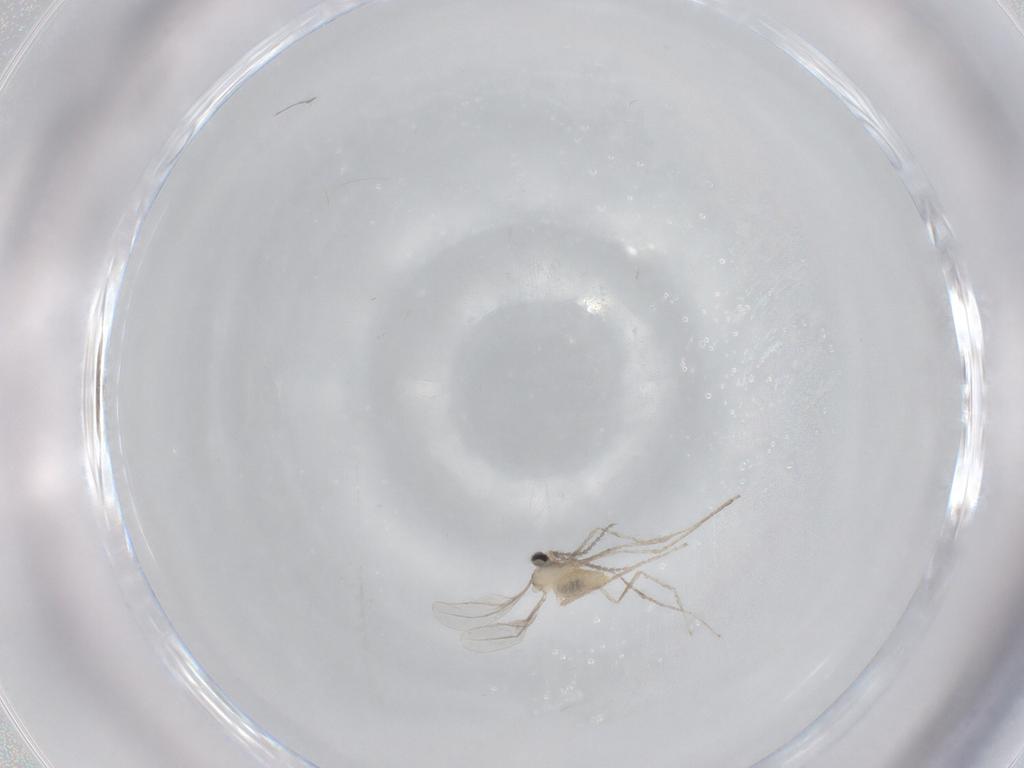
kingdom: Animalia
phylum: Arthropoda
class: Insecta
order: Diptera
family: Cecidomyiidae
